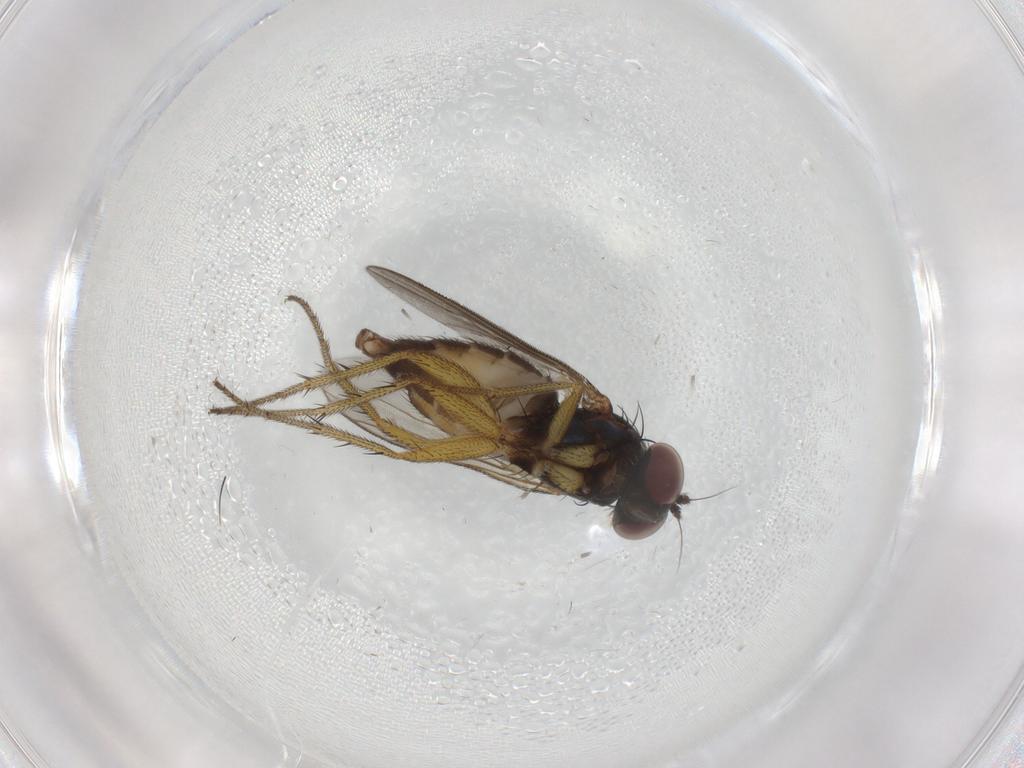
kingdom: Animalia
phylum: Arthropoda
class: Insecta
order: Diptera
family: Dolichopodidae
